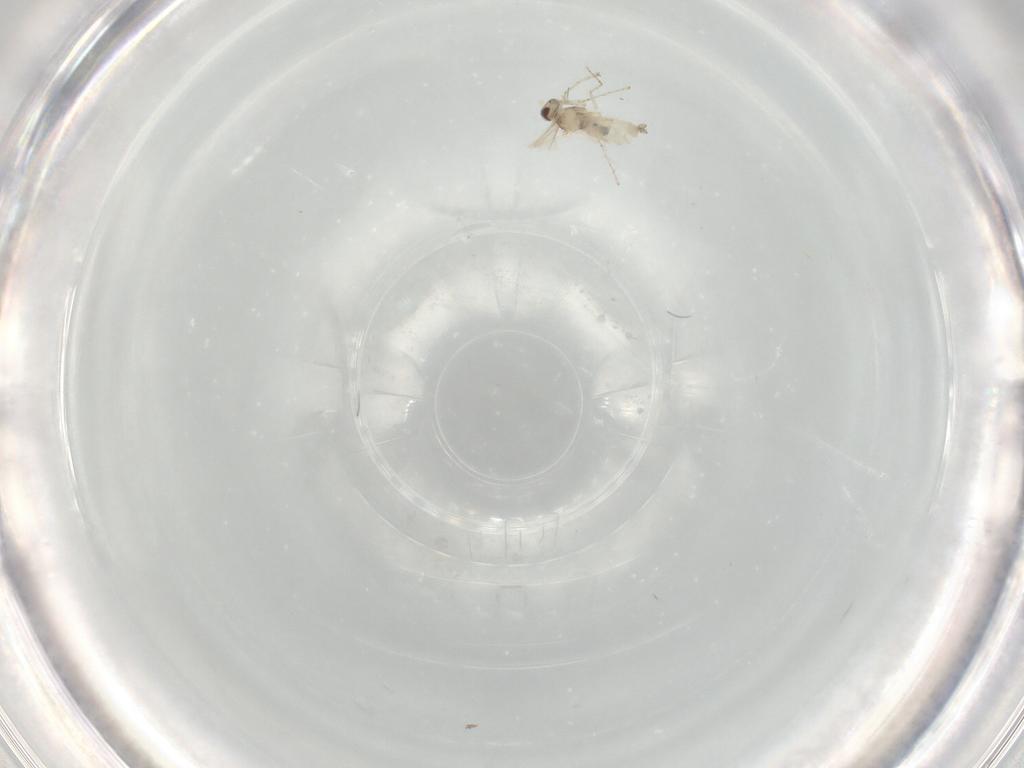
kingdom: Animalia
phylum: Arthropoda
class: Insecta
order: Diptera
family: Cecidomyiidae
